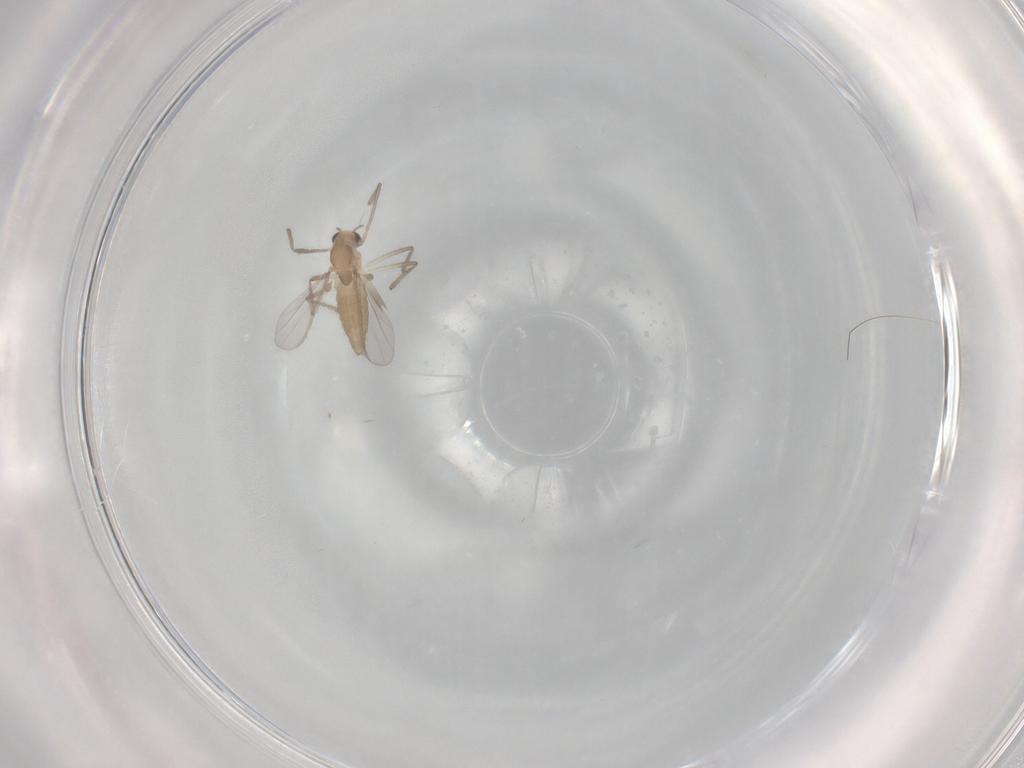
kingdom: Animalia
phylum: Arthropoda
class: Insecta
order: Diptera
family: Chironomidae
